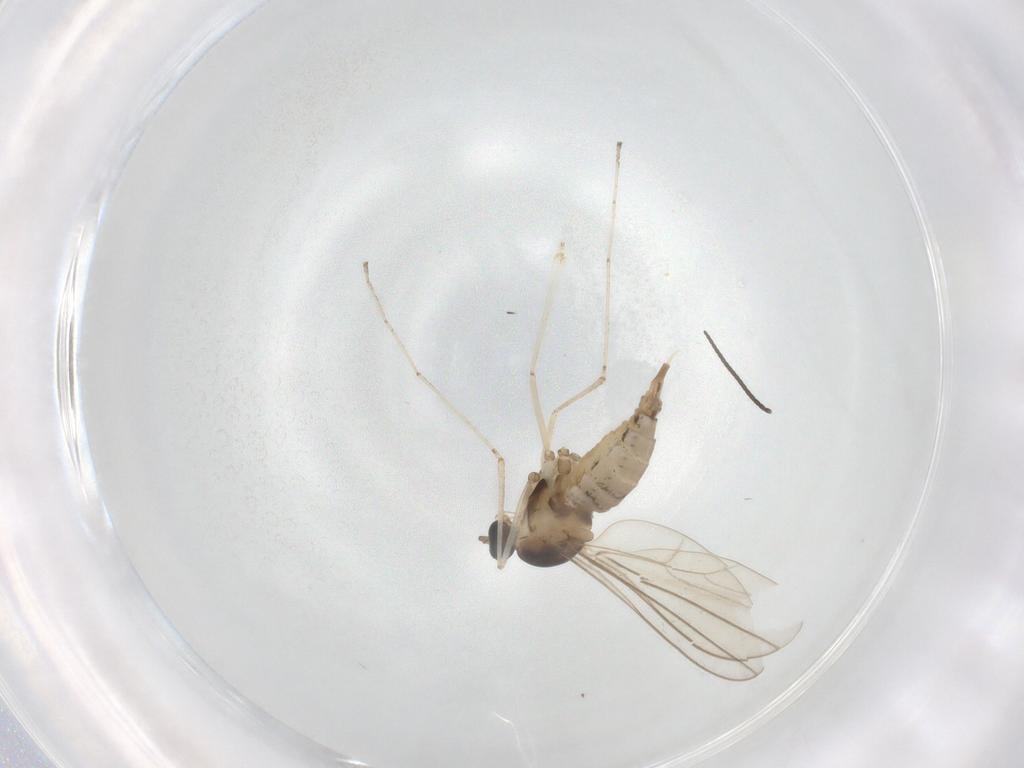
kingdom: Animalia
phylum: Arthropoda
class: Insecta
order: Diptera
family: Cecidomyiidae
